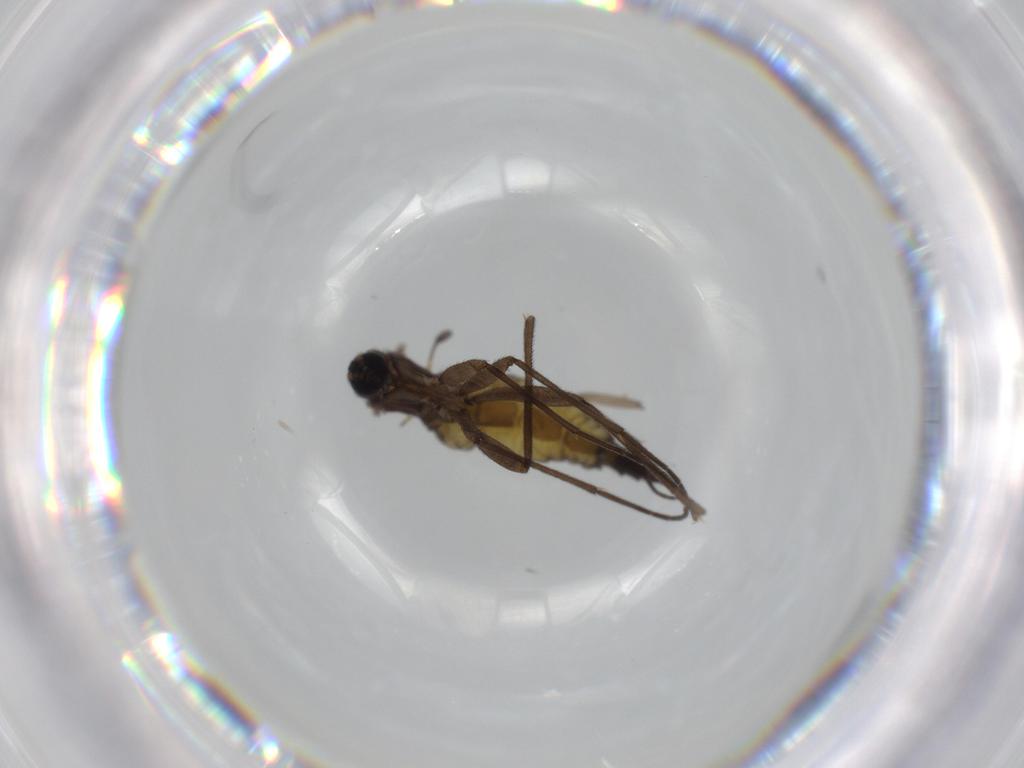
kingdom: Animalia
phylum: Arthropoda
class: Insecta
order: Diptera
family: Sciaridae
